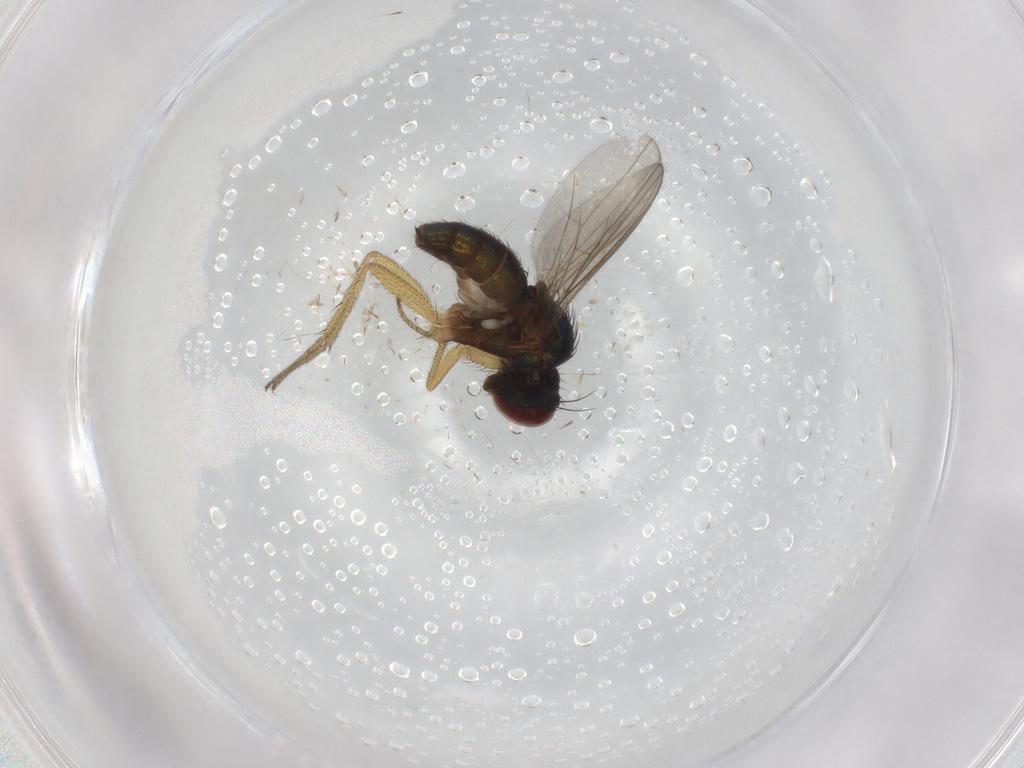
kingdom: Animalia
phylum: Arthropoda
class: Insecta
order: Diptera
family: Dolichopodidae
